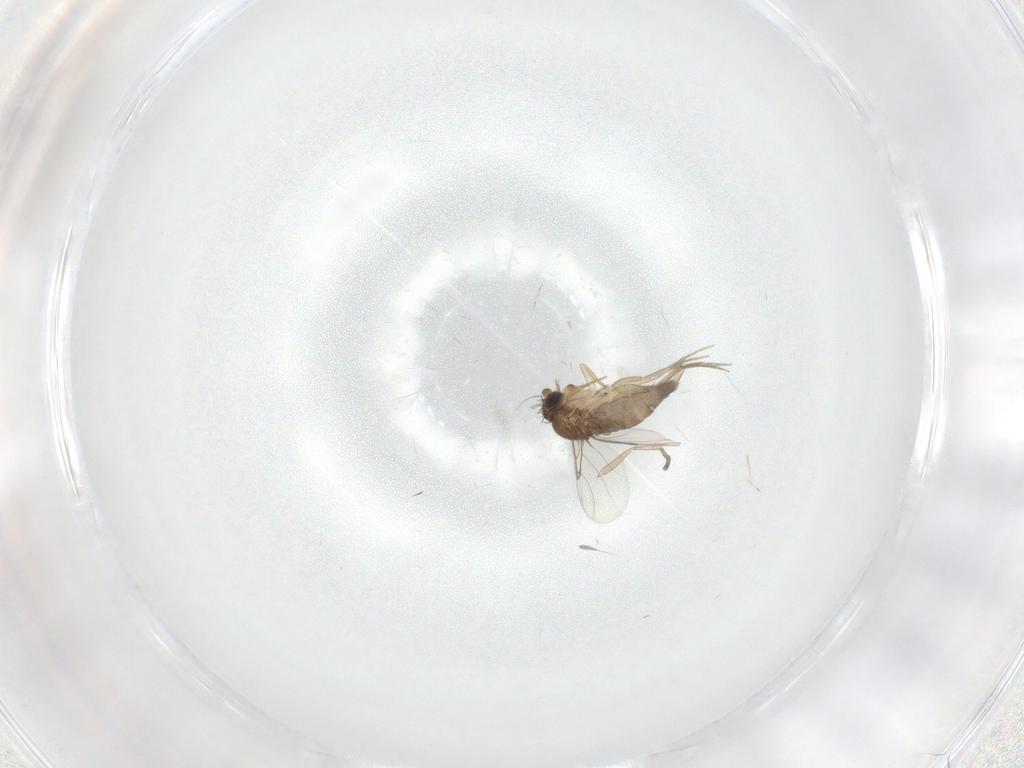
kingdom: Animalia
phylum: Arthropoda
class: Insecta
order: Diptera
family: Phoridae
